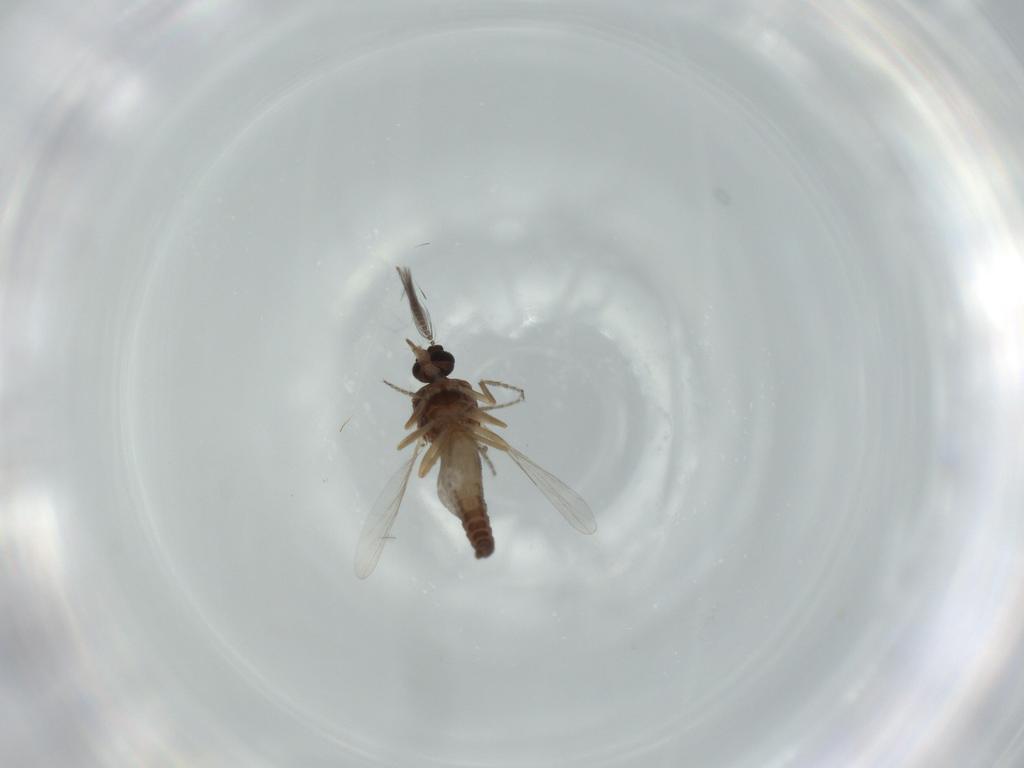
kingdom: Animalia
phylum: Arthropoda
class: Insecta
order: Diptera
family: Ceratopogonidae
